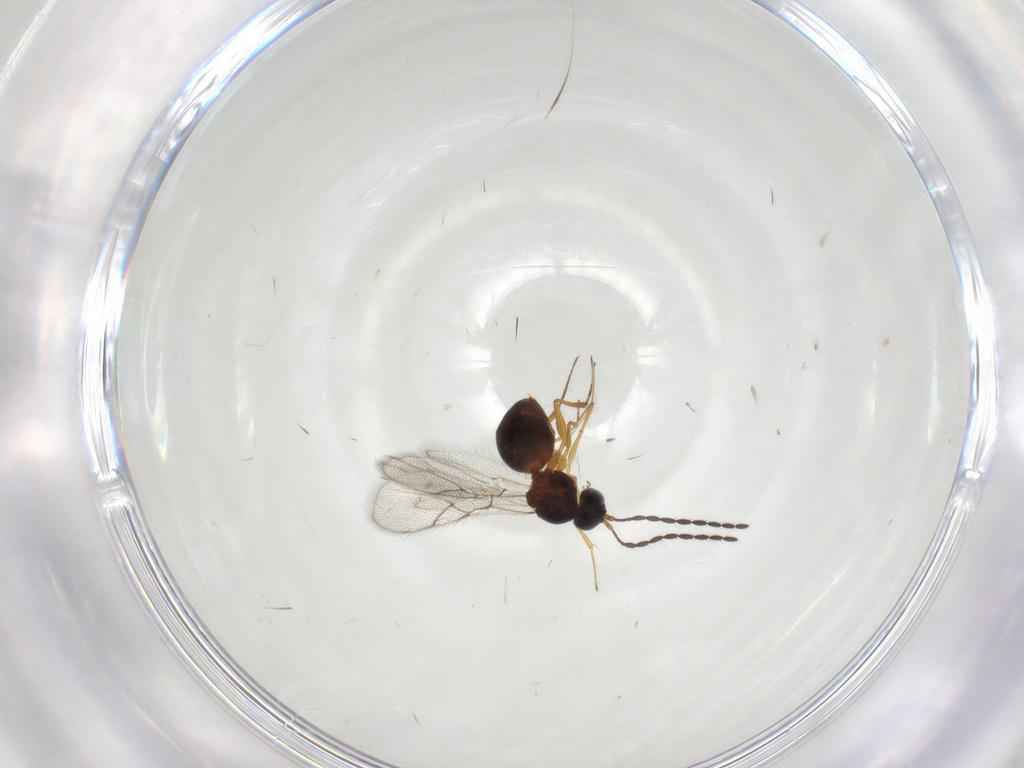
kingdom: Animalia
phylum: Arthropoda
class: Insecta
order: Hymenoptera
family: Figitidae
